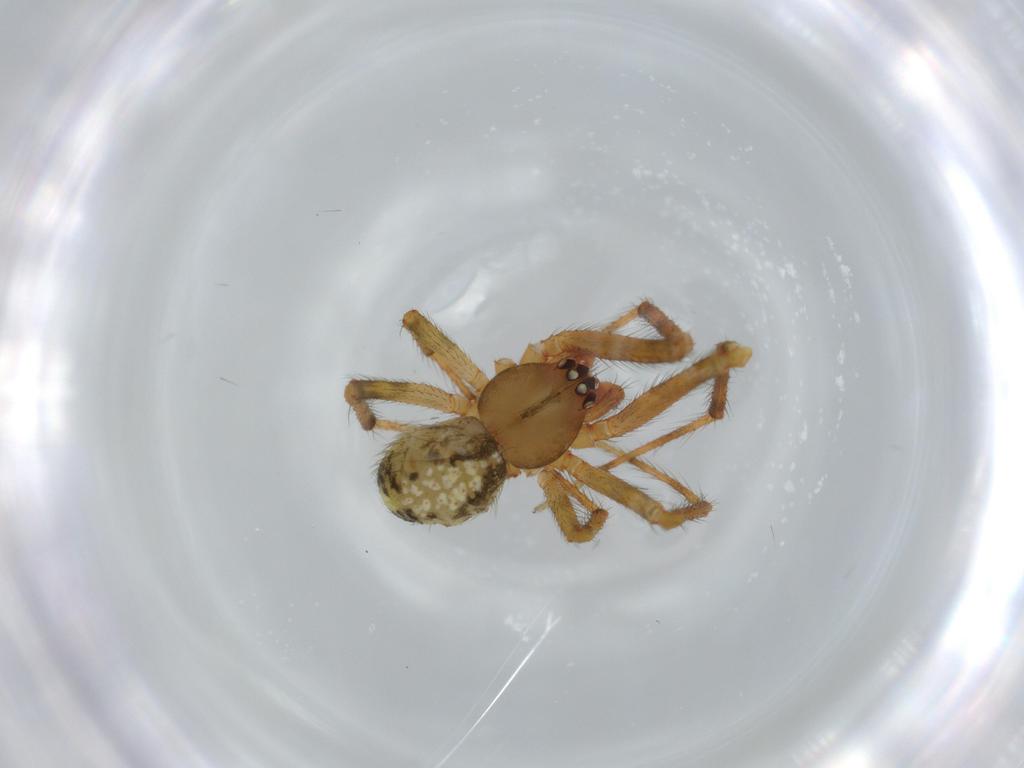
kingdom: Animalia
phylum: Arthropoda
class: Arachnida
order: Araneae
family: Theridiidae
